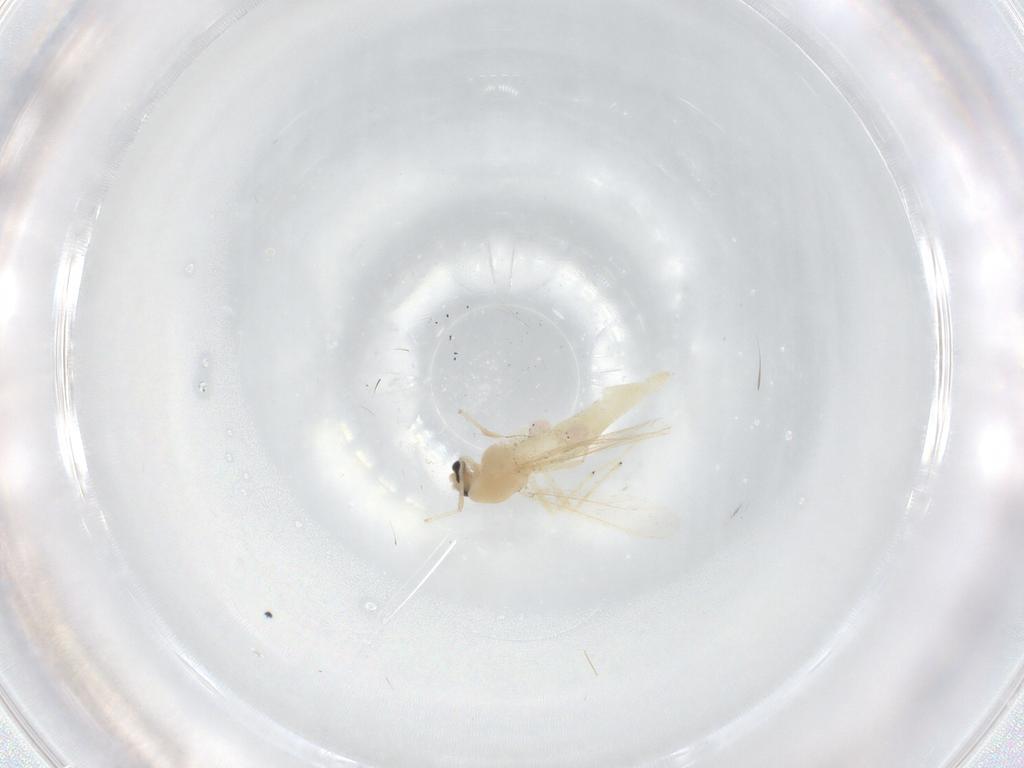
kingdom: Animalia
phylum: Arthropoda
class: Insecta
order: Diptera
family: Chironomidae
